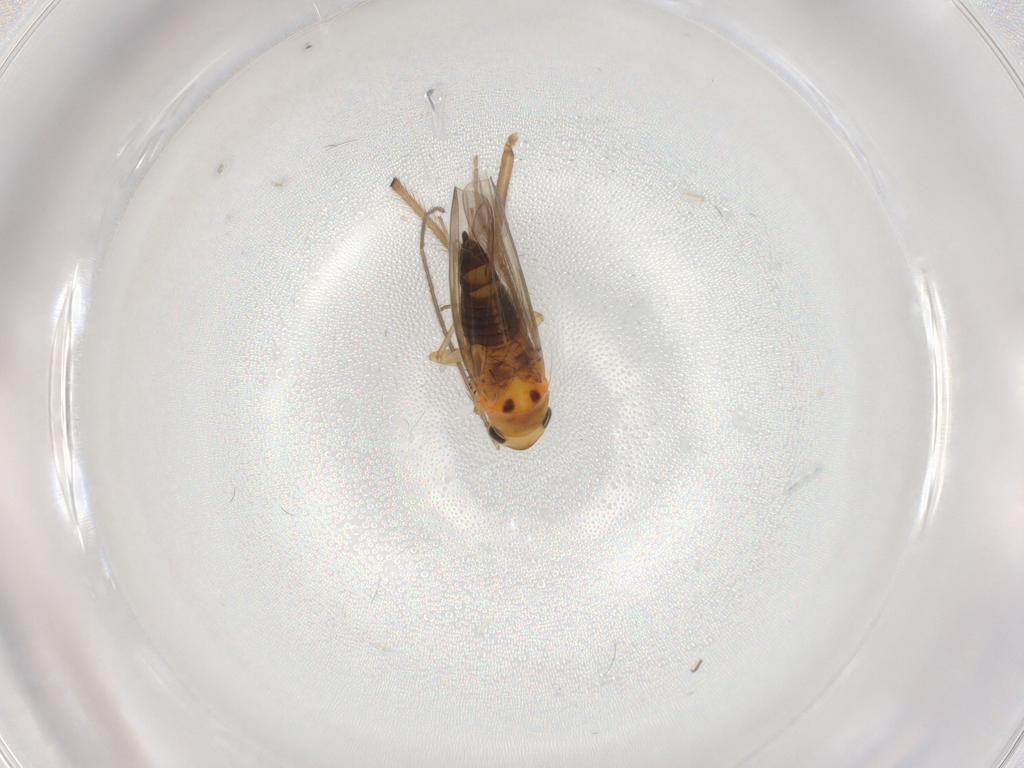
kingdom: Animalia
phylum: Arthropoda
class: Insecta
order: Hemiptera
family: Cicadellidae
